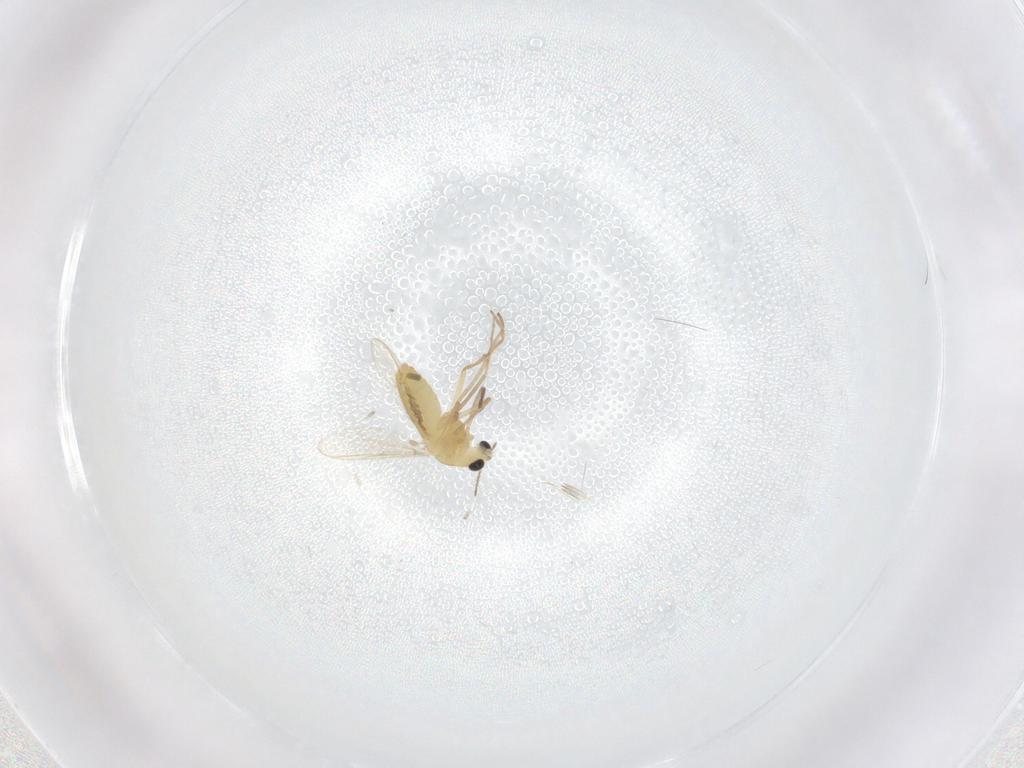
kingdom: Animalia
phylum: Arthropoda
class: Insecta
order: Diptera
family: Chironomidae
